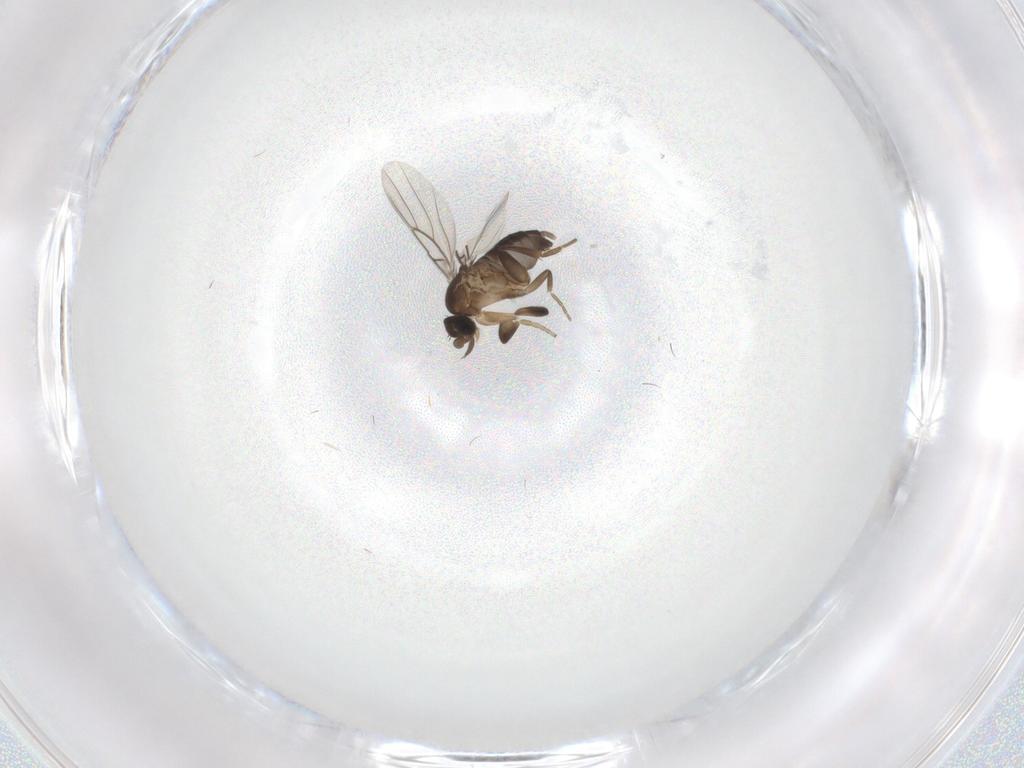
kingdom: Animalia
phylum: Arthropoda
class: Insecta
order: Diptera
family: Phoridae
